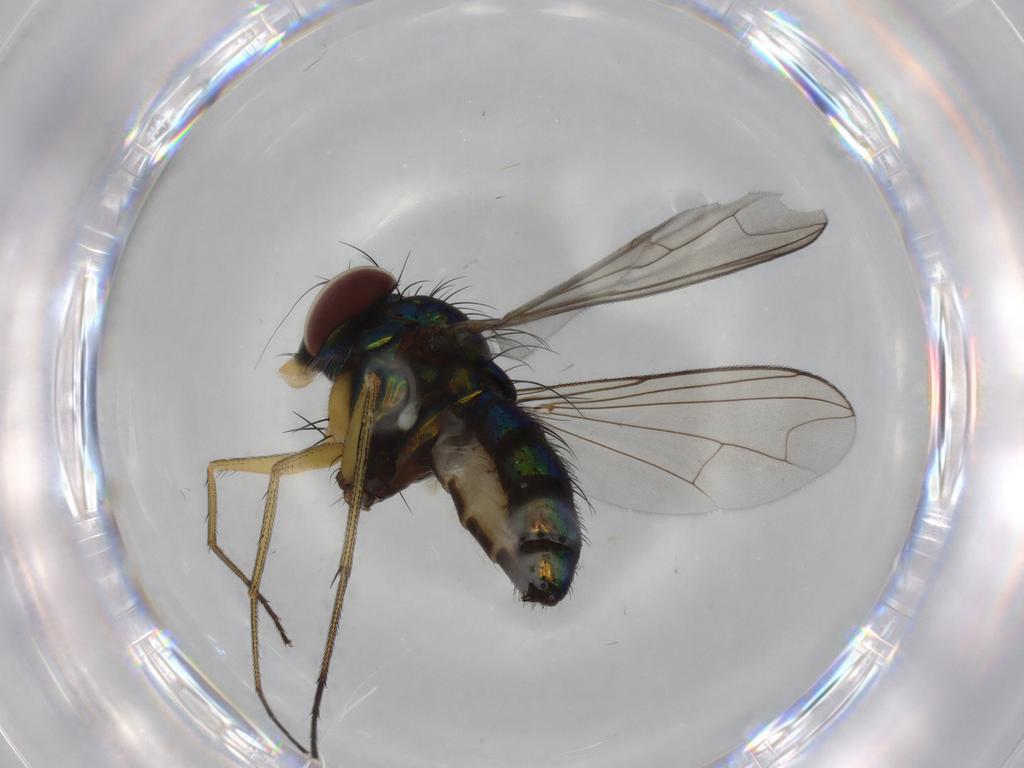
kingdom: Animalia
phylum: Arthropoda
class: Insecta
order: Diptera
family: Dolichopodidae
